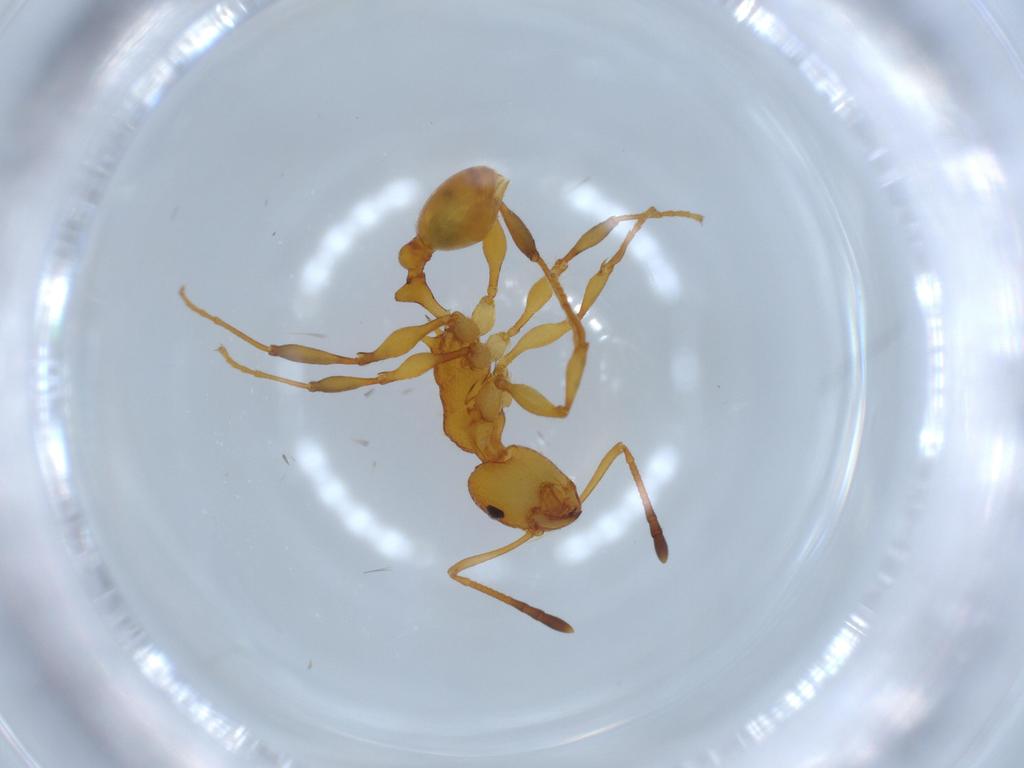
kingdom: Animalia
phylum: Arthropoda
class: Insecta
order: Hymenoptera
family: Formicidae
